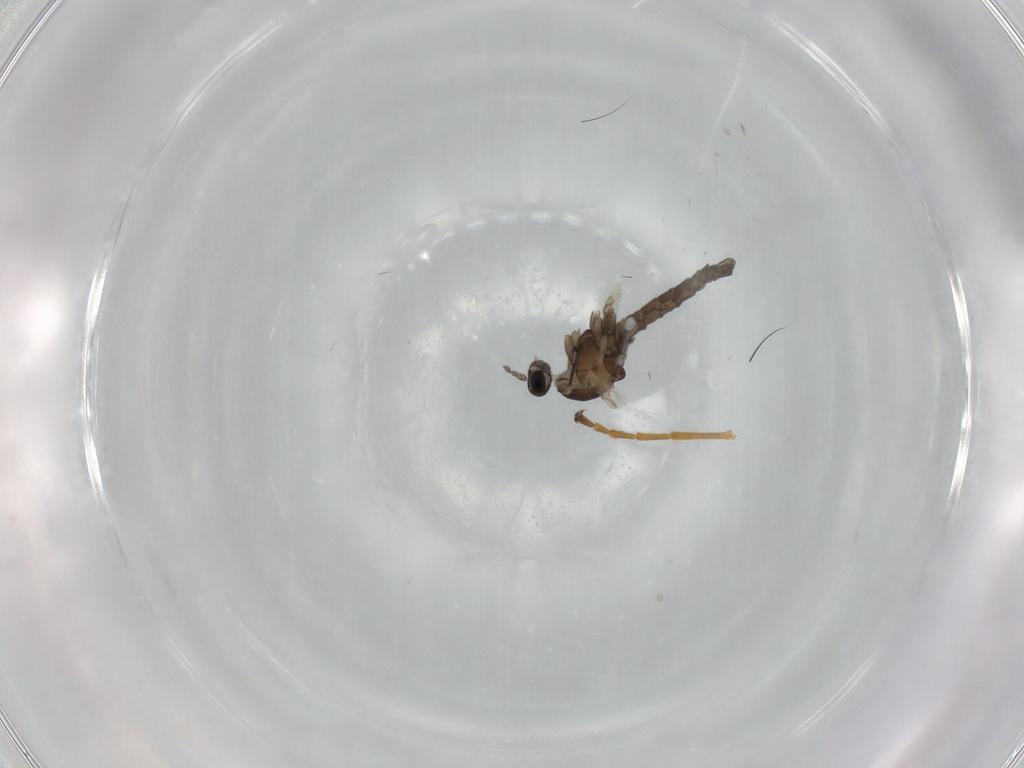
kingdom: Animalia
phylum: Arthropoda
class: Insecta
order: Diptera
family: Cecidomyiidae
